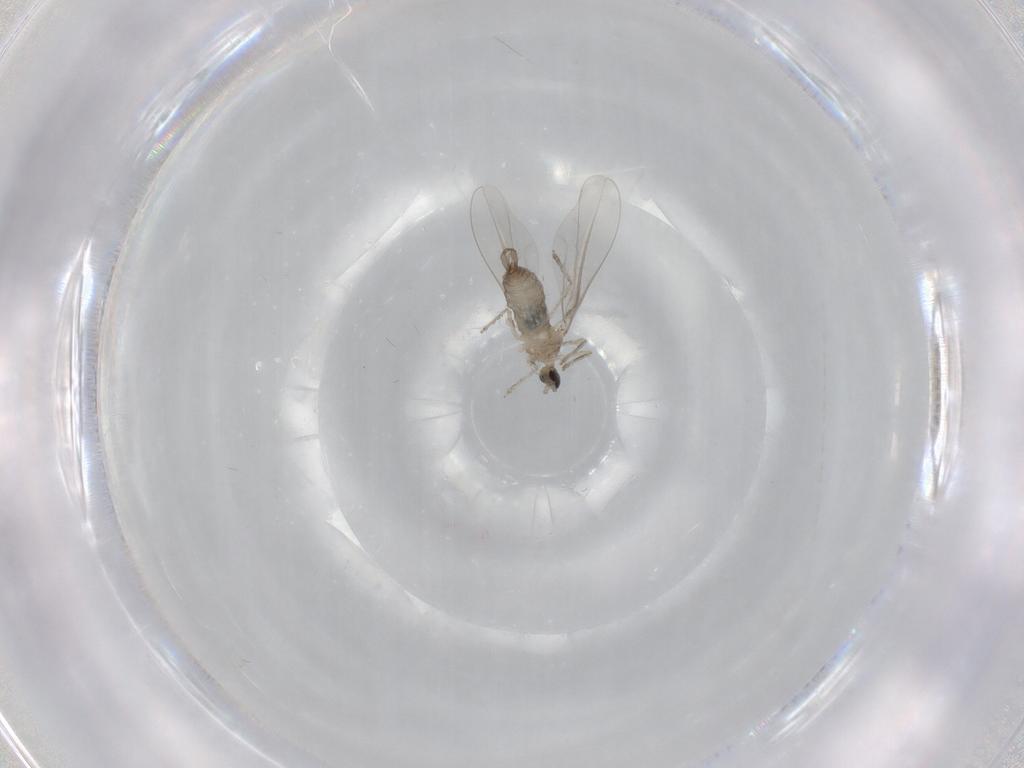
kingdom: Animalia
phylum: Arthropoda
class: Insecta
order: Diptera
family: Cecidomyiidae
